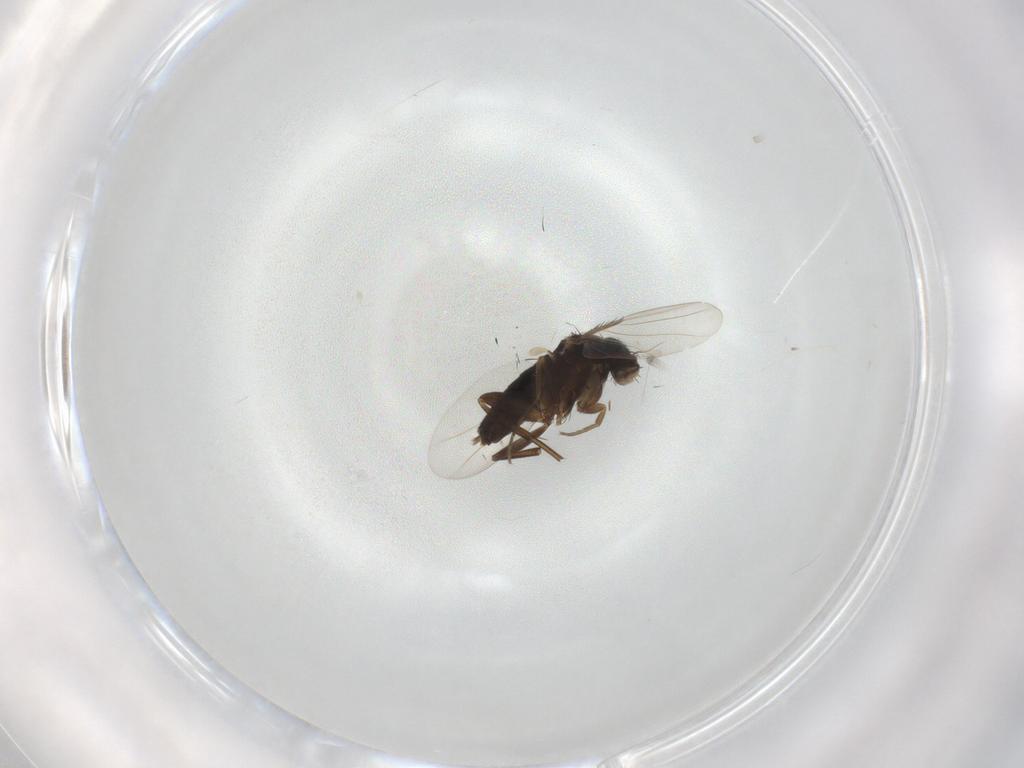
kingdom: Animalia
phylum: Arthropoda
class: Insecta
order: Diptera
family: Phoridae
